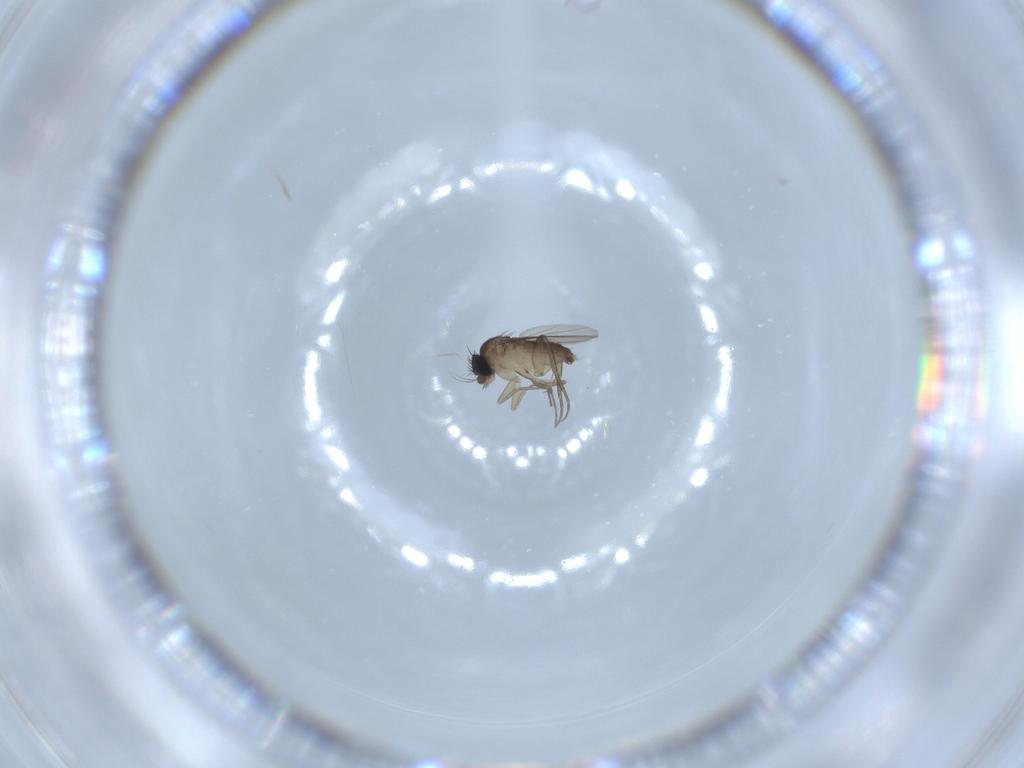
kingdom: Animalia
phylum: Arthropoda
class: Insecta
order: Diptera
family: Phoridae
